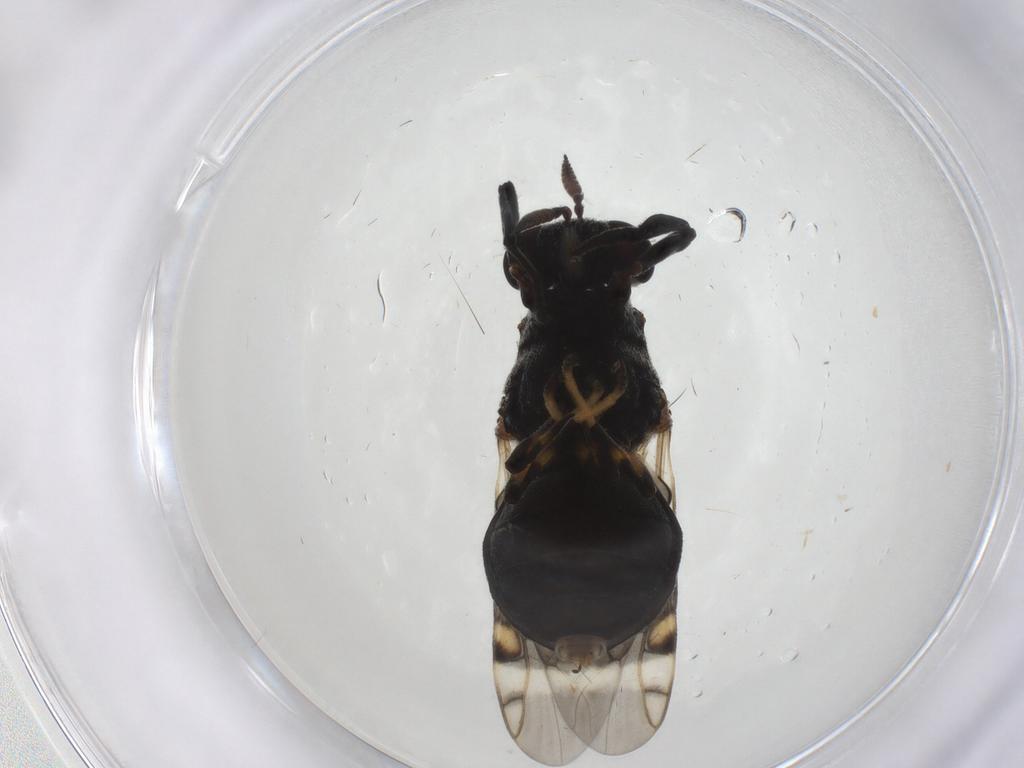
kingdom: Animalia
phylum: Arthropoda
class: Insecta
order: Diptera
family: Stratiomyidae
